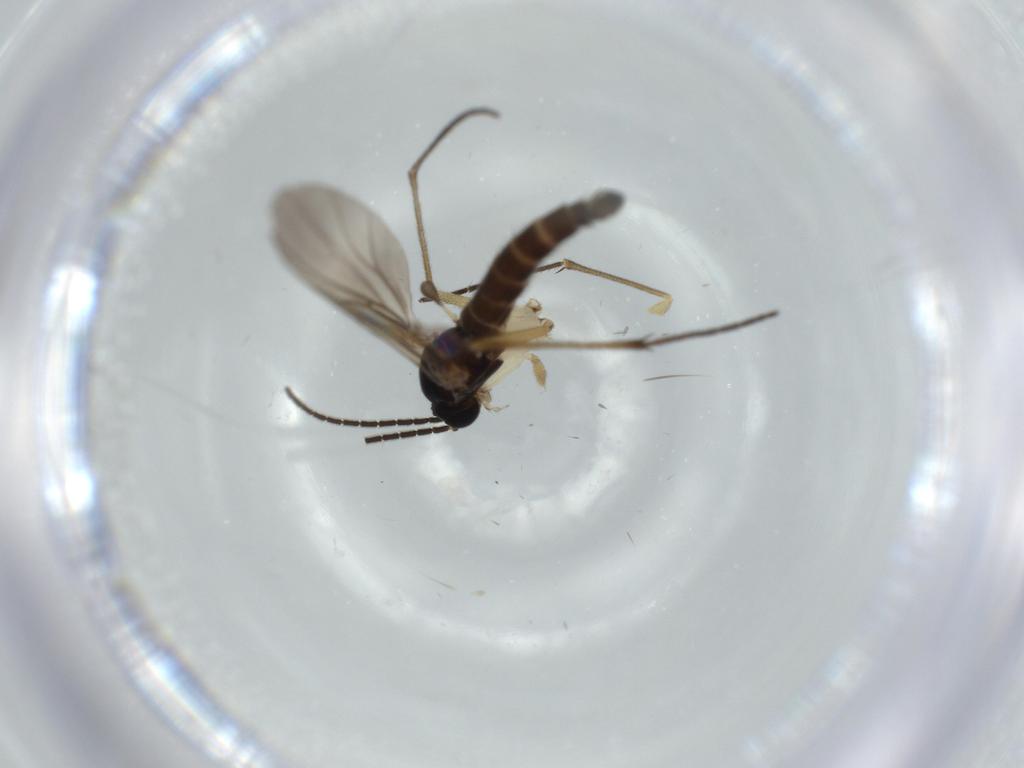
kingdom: Animalia
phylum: Arthropoda
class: Insecta
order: Diptera
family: Sciaridae
